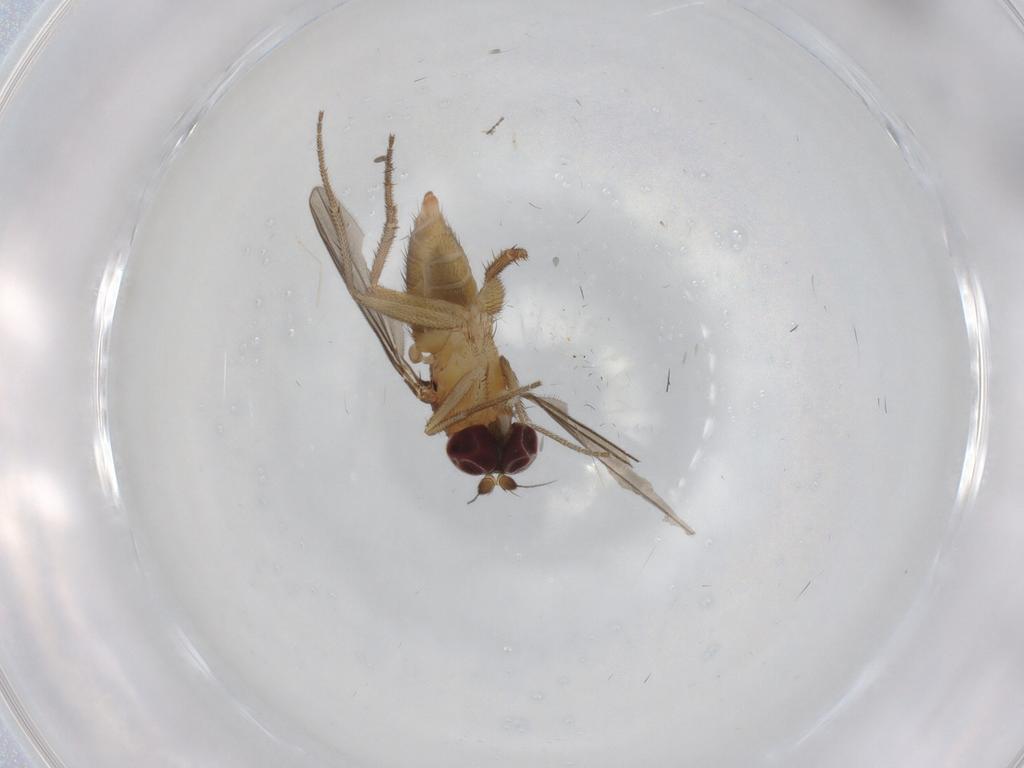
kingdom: Animalia
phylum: Arthropoda
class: Insecta
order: Diptera
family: Dolichopodidae
